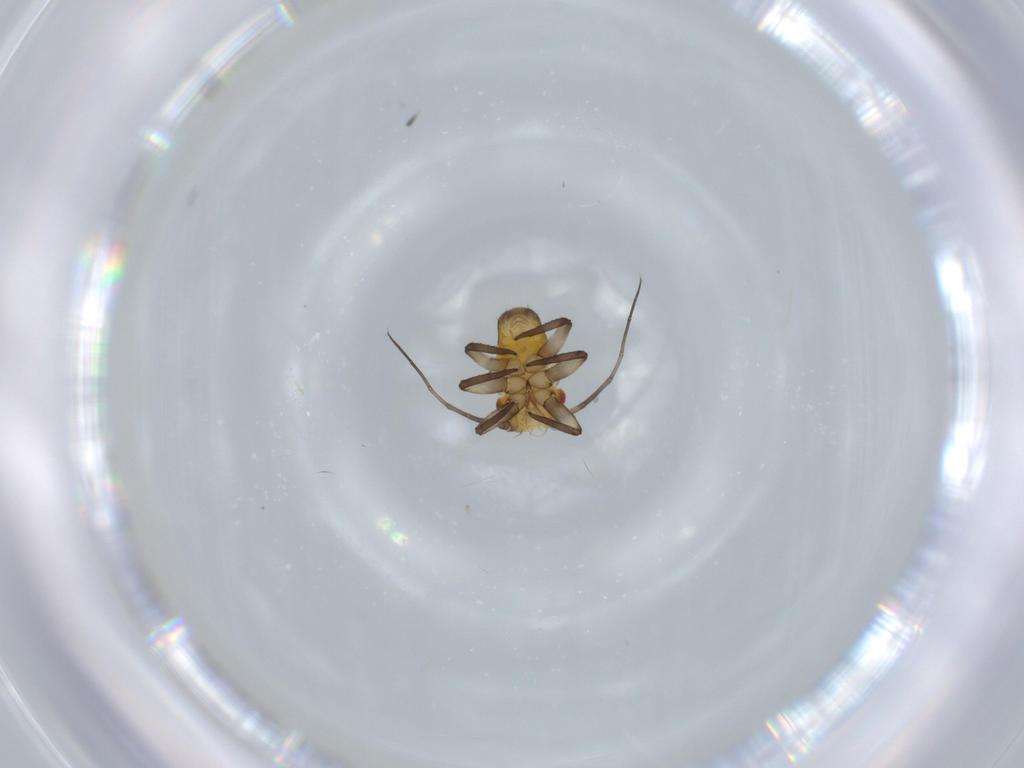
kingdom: Animalia
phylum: Arthropoda
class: Insecta
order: Hemiptera
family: Psyllidae
